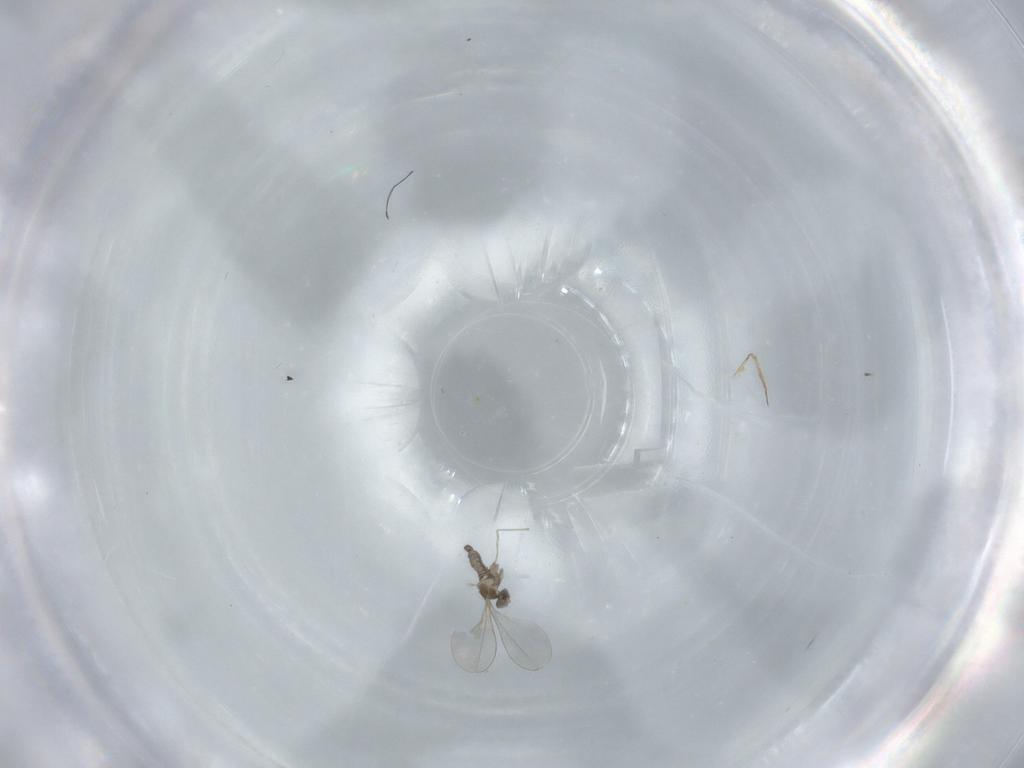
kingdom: Animalia
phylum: Arthropoda
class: Insecta
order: Diptera
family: Cecidomyiidae
